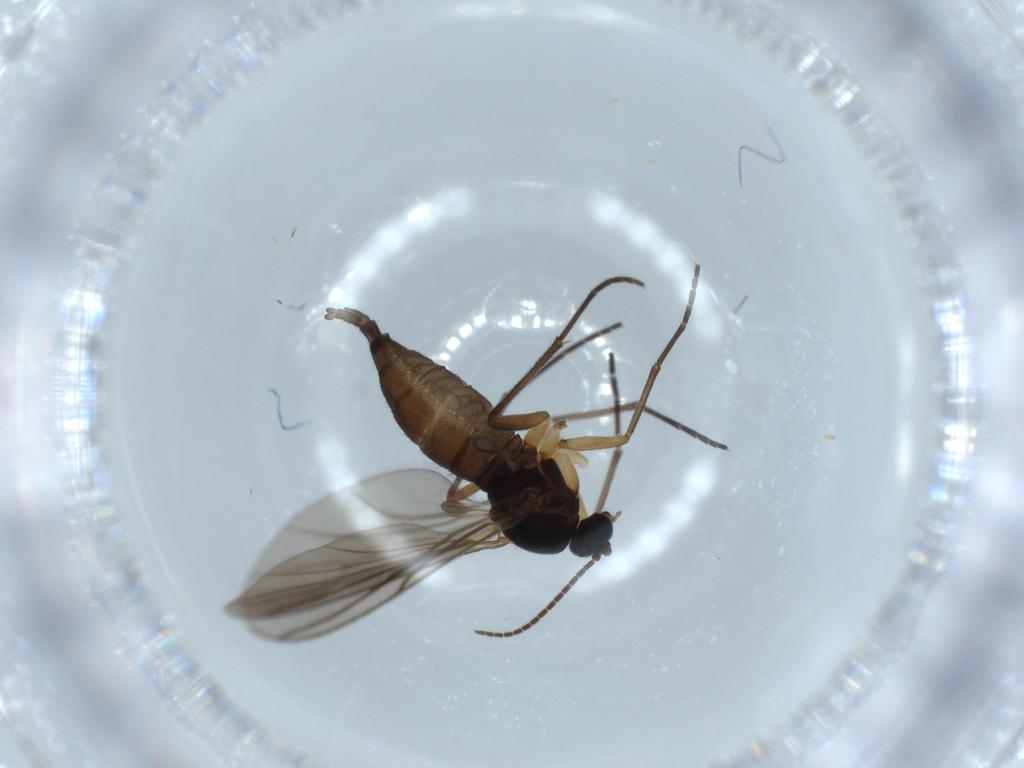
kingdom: Animalia
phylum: Arthropoda
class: Insecta
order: Diptera
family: Sciaridae
